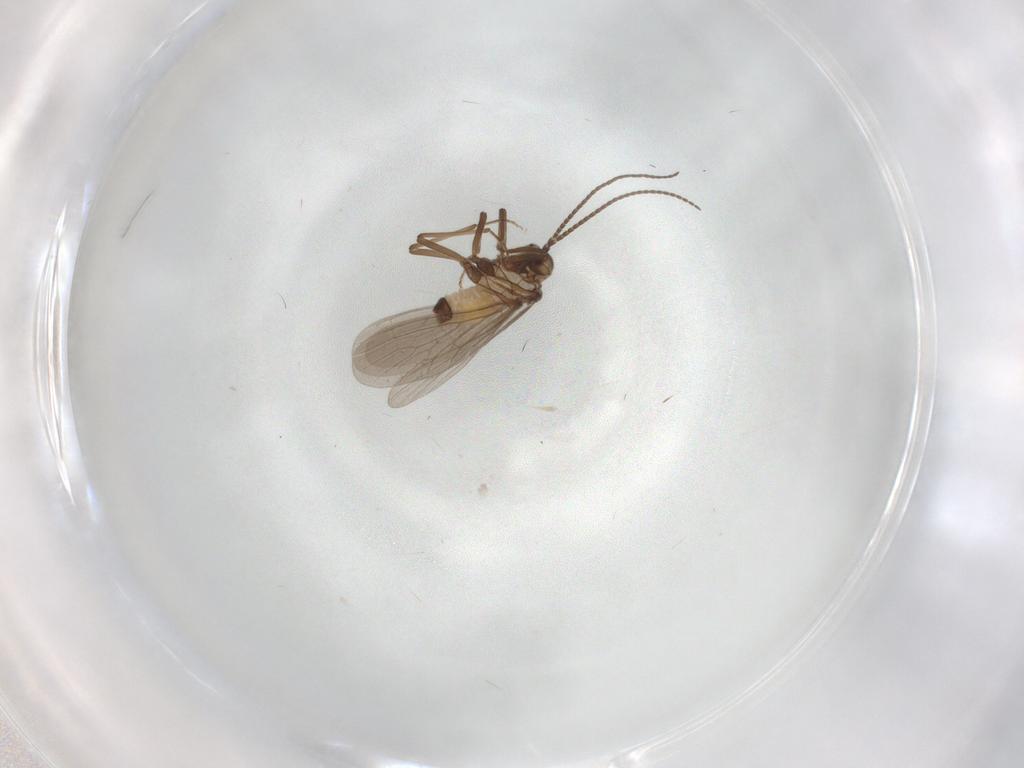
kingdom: Animalia
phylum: Arthropoda
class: Insecta
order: Neuroptera
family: Coniopterygidae
